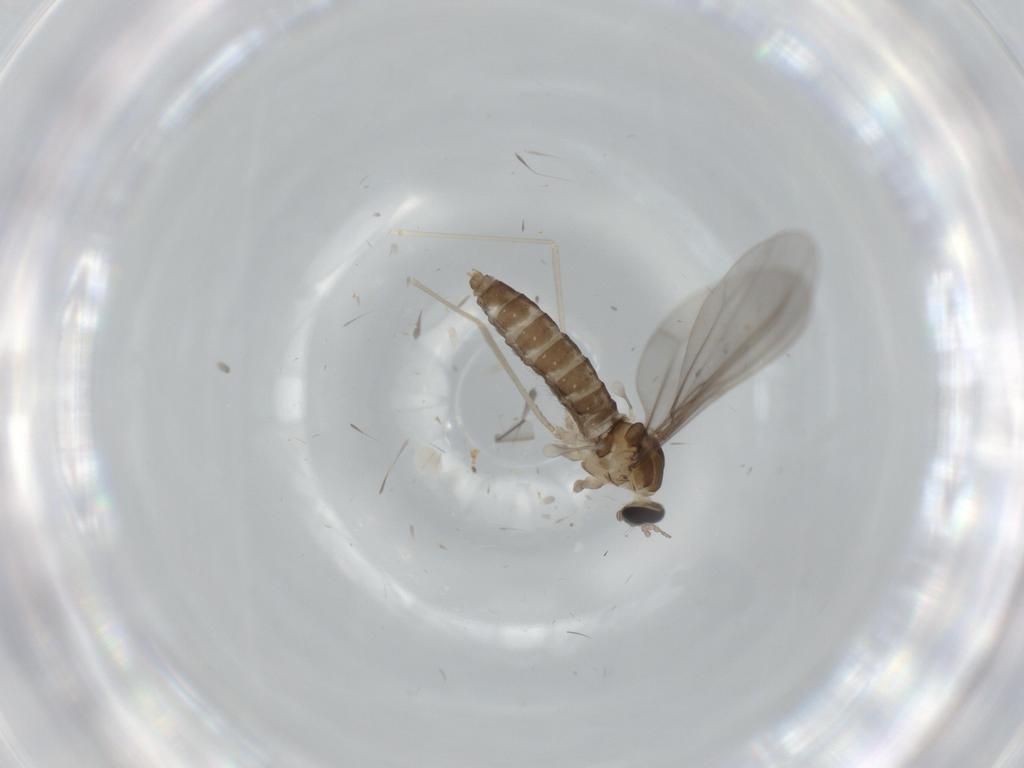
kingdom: Animalia
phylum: Arthropoda
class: Insecta
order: Diptera
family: Cecidomyiidae
